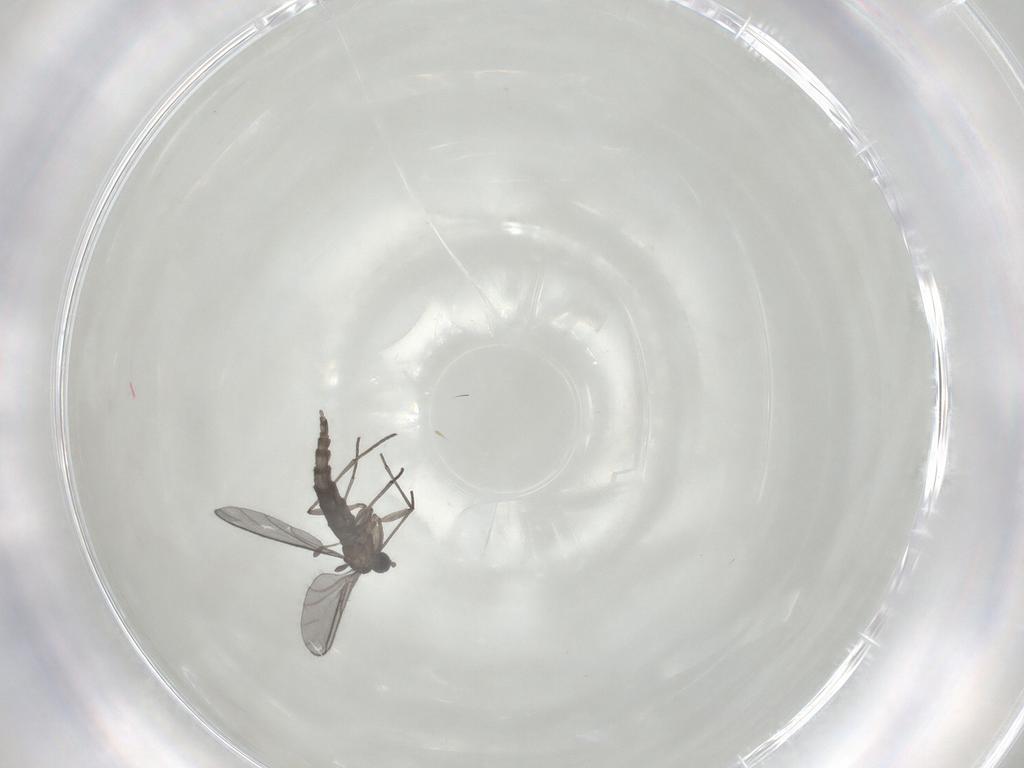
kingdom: Animalia
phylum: Arthropoda
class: Insecta
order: Diptera
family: Sciaridae
